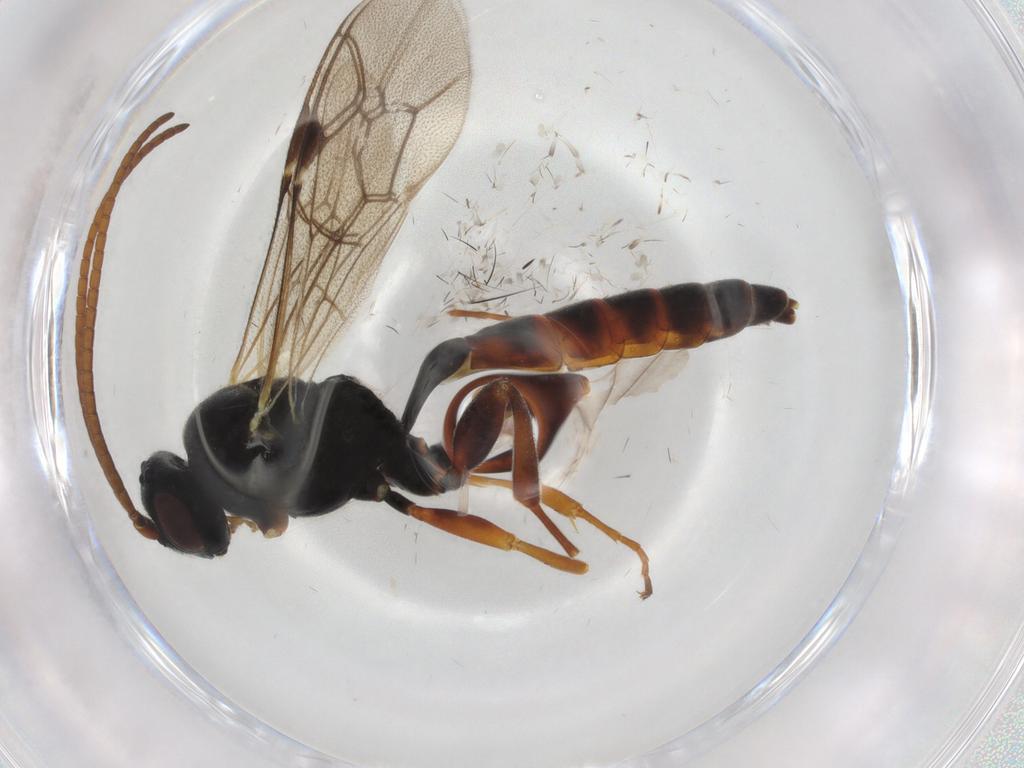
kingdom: Animalia
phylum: Arthropoda
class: Insecta
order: Hymenoptera
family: Ichneumonidae
